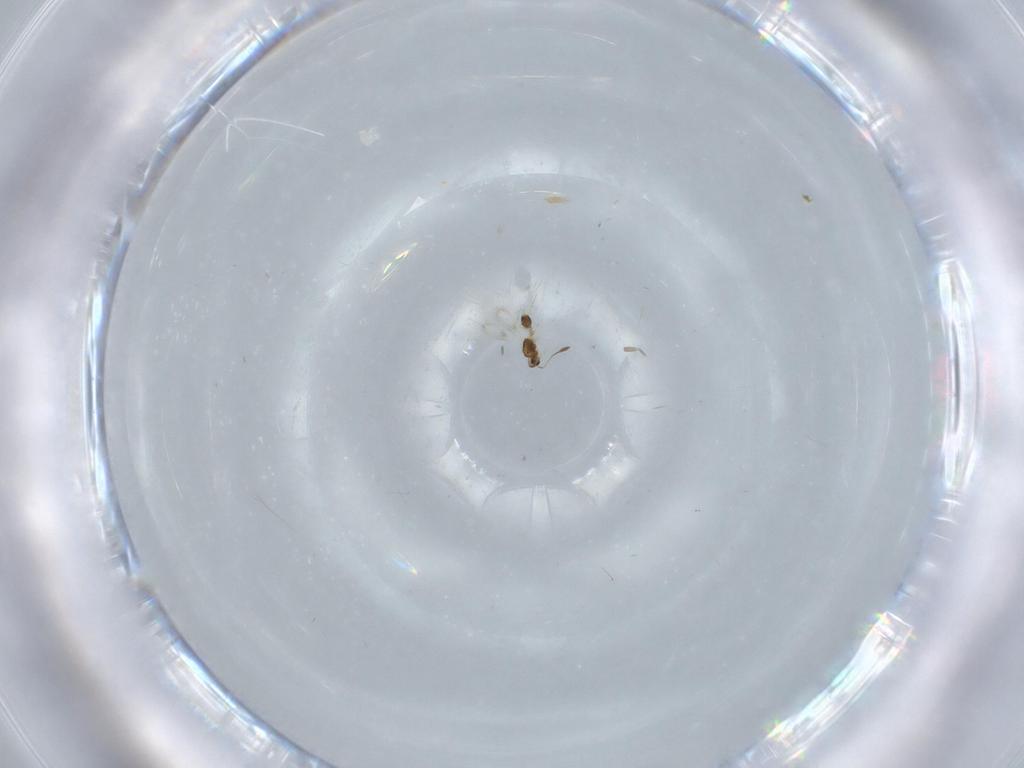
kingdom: Animalia
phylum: Arthropoda
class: Insecta
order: Hymenoptera
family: Mymarommatidae
